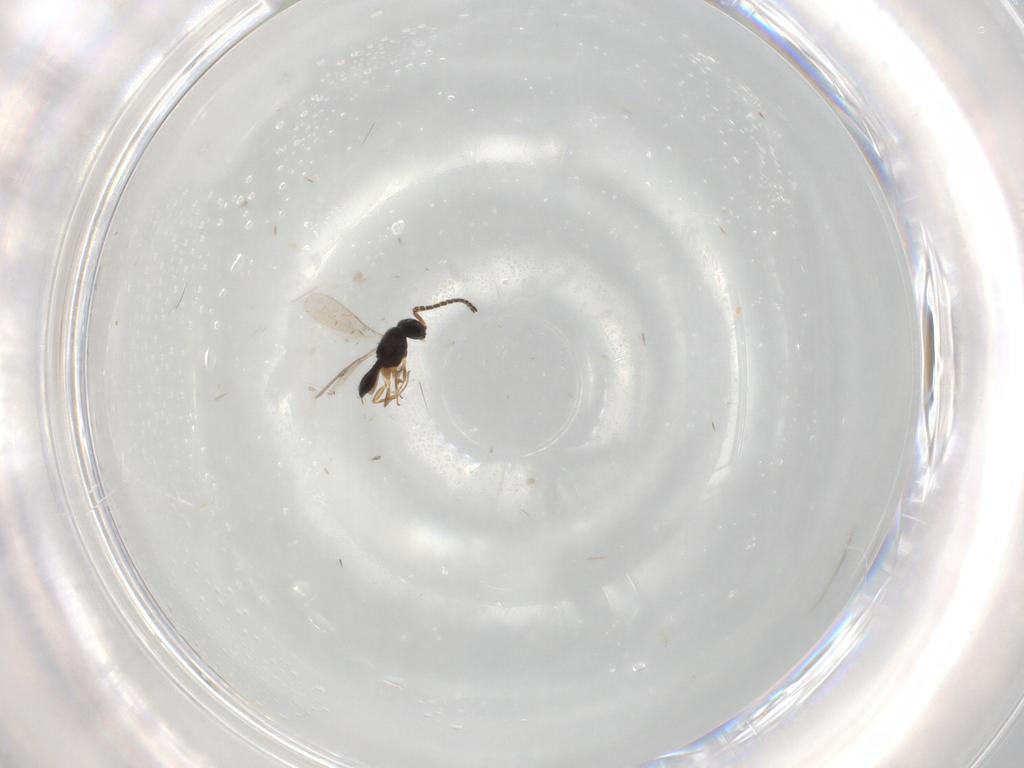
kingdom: Animalia
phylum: Arthropoda
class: Insecta
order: Hymenoptera
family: Scelionidae
